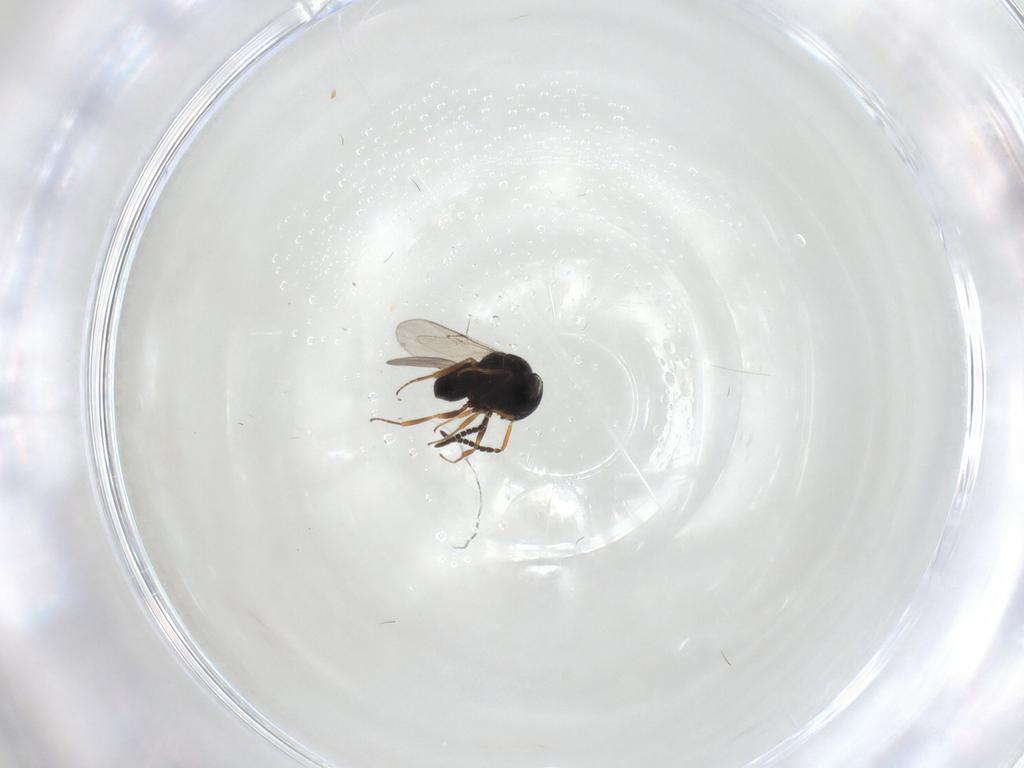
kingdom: Animalia
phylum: Arthropoda
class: Insecta
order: Hymenoptera
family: Scelionidae
